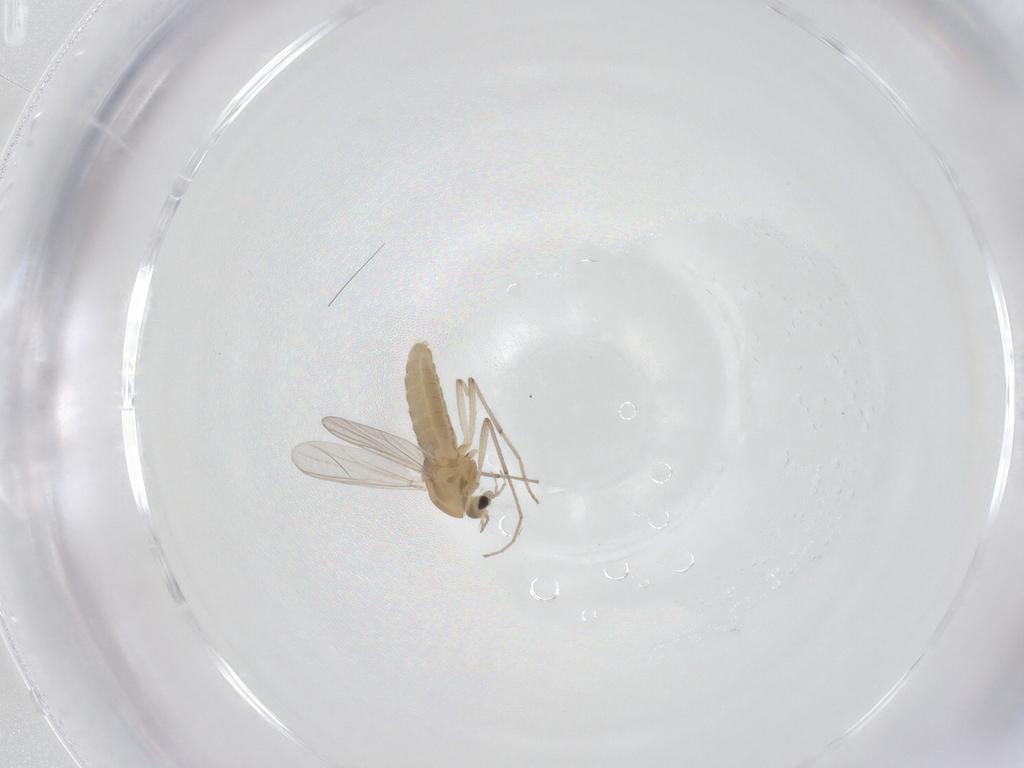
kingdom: Animalia
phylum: Arthropoda
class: Insecta
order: Diptera
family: Chironomidae
